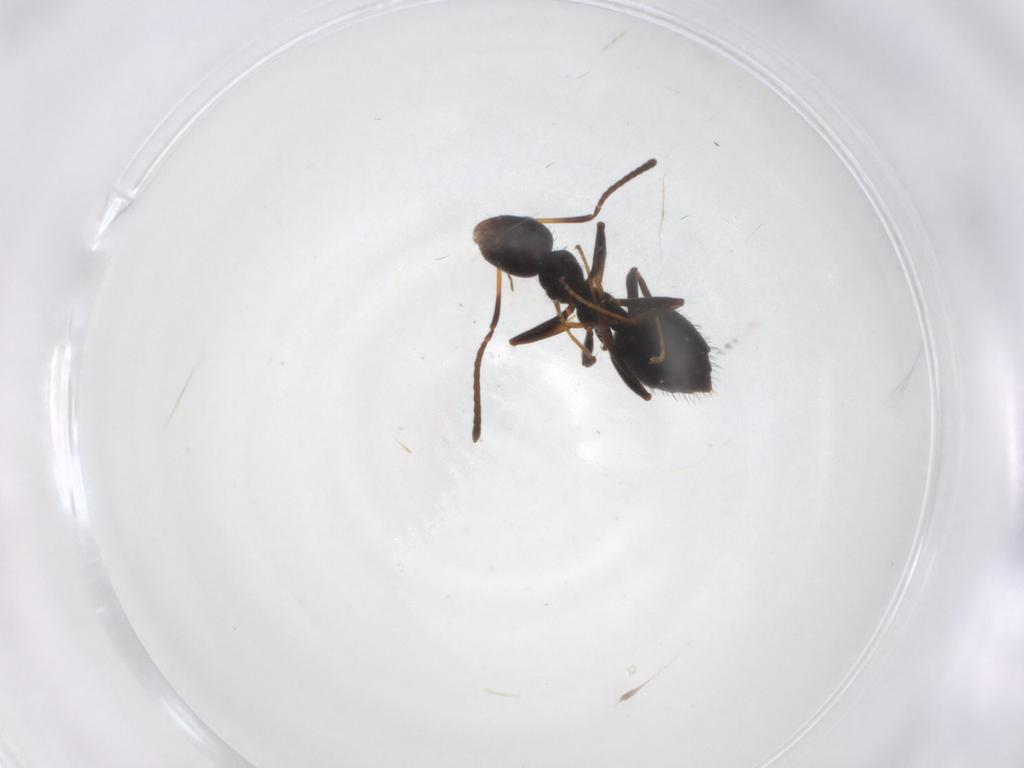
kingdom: Animalia
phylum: Arthropoda
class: Insecta
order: Hymenoptera
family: Formicidae
